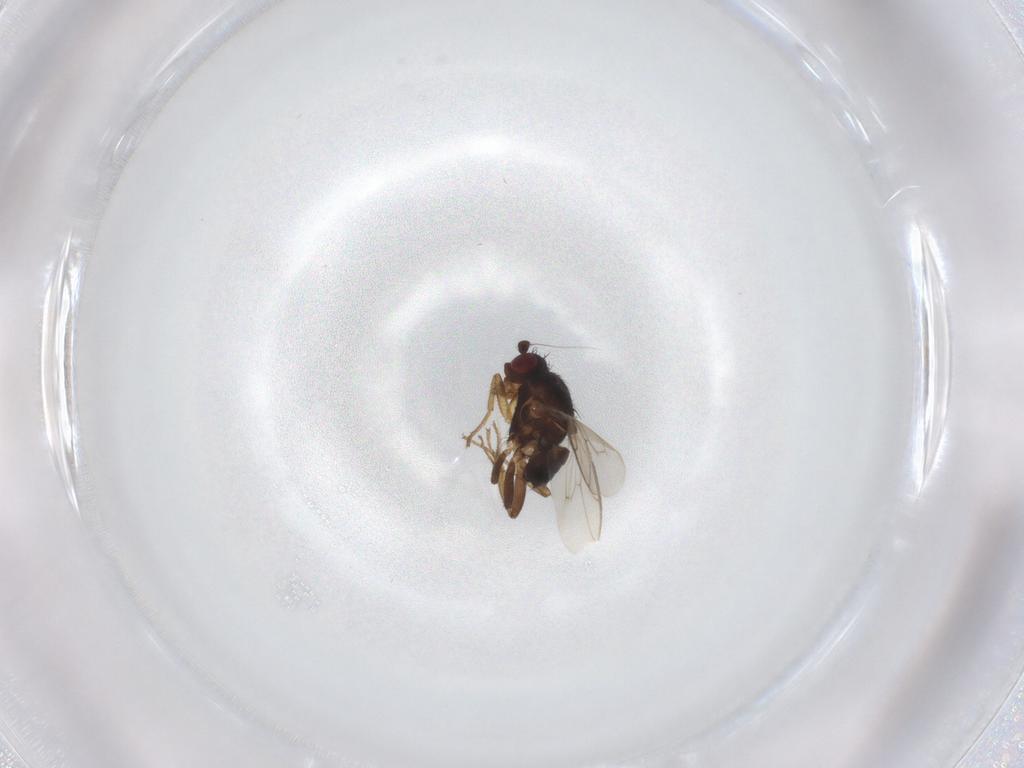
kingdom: Animalia
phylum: Arthropoda
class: Insecta
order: Diptera
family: Sphaeroceridae
